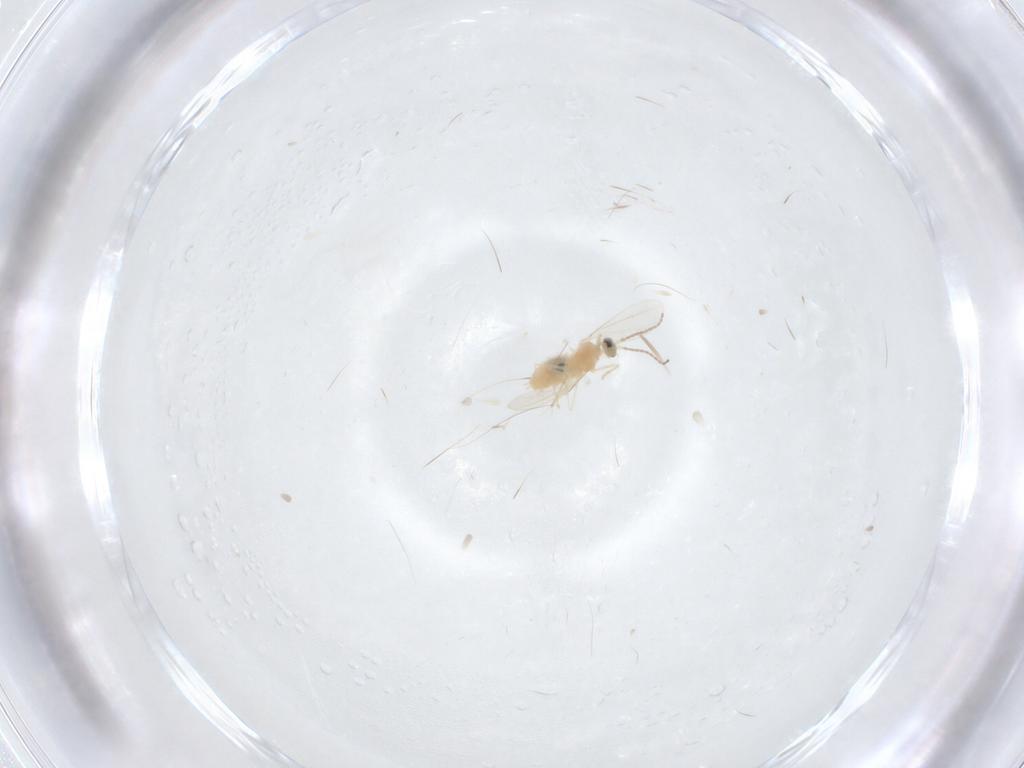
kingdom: Animalia
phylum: Arthropoda
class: Insecta
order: Diptera
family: Cecidomyiidae
